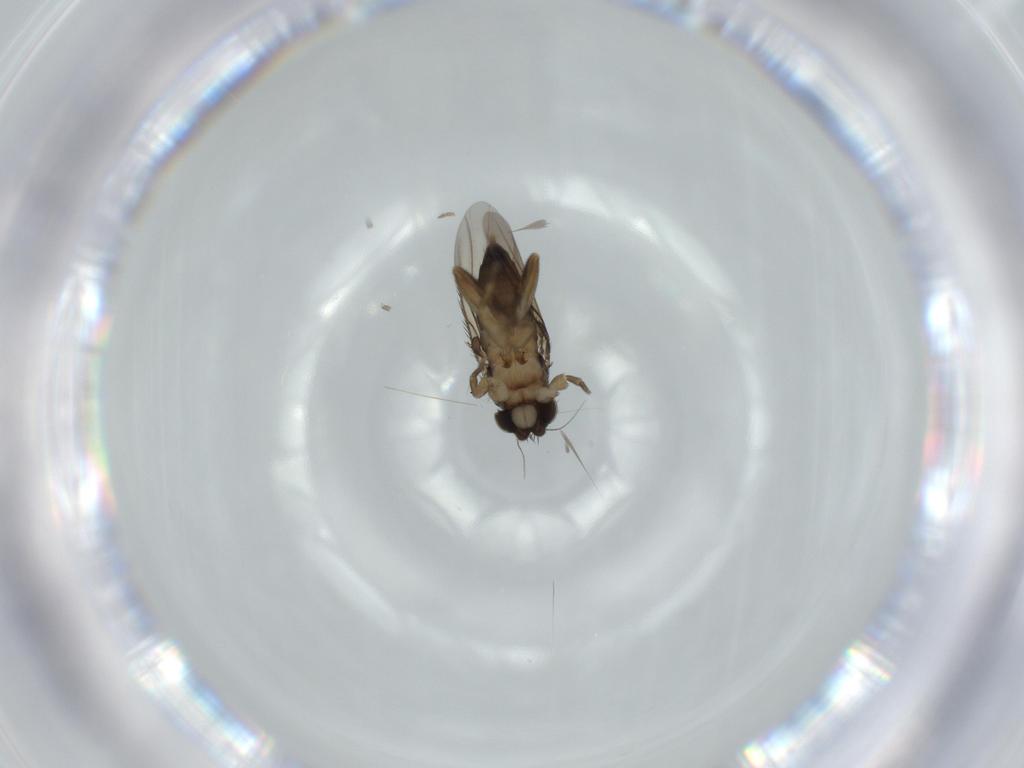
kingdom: Animalia
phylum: Arthropoda
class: Insecta
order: Diptera
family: Phoridae
